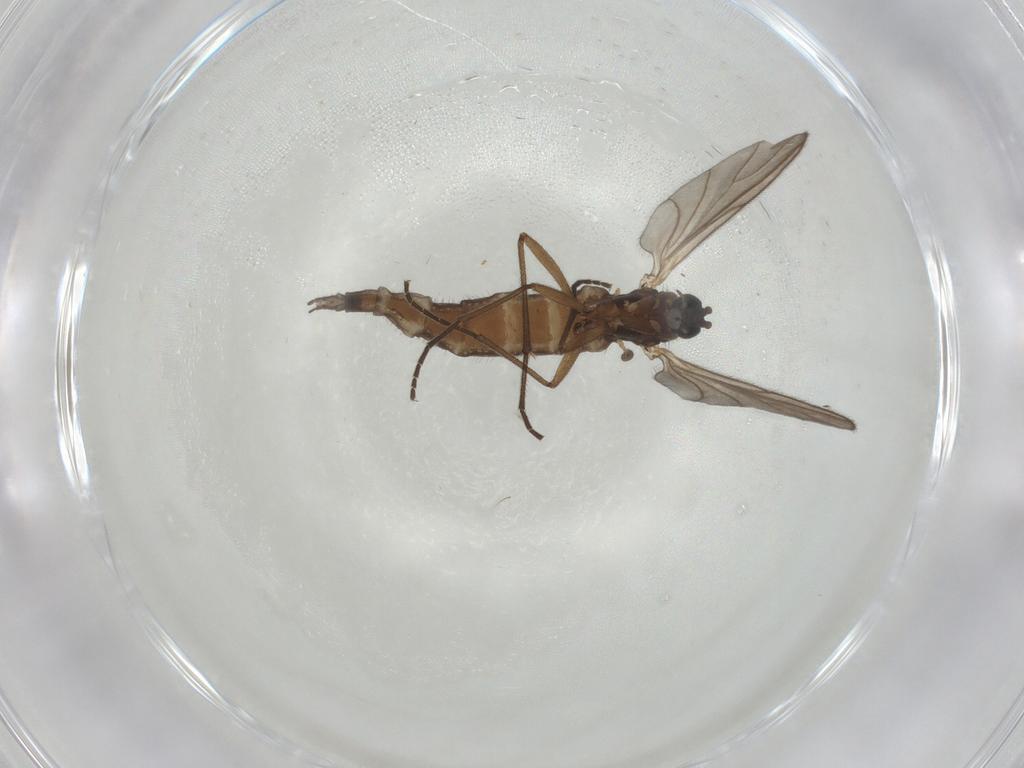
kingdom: Animalia
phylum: Arthropoda
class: Insecta
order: Diptera
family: Sciaridae
